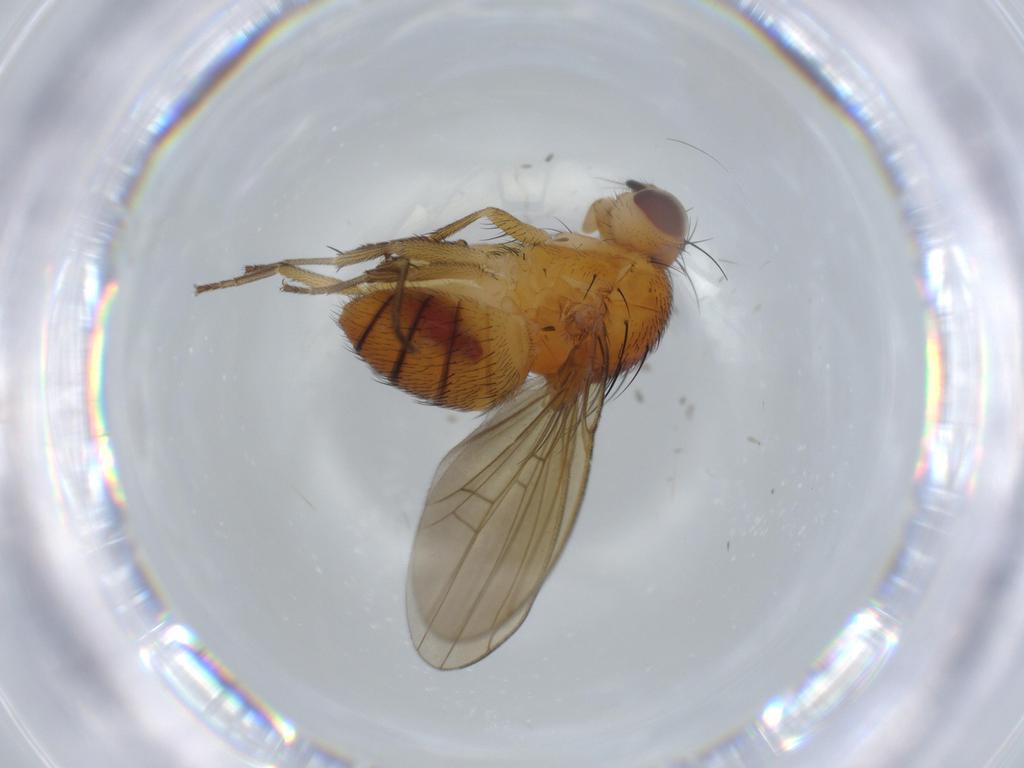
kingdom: Animalia
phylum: Arthropoda
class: Insecta
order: Diptera
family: Lauxaniidae
